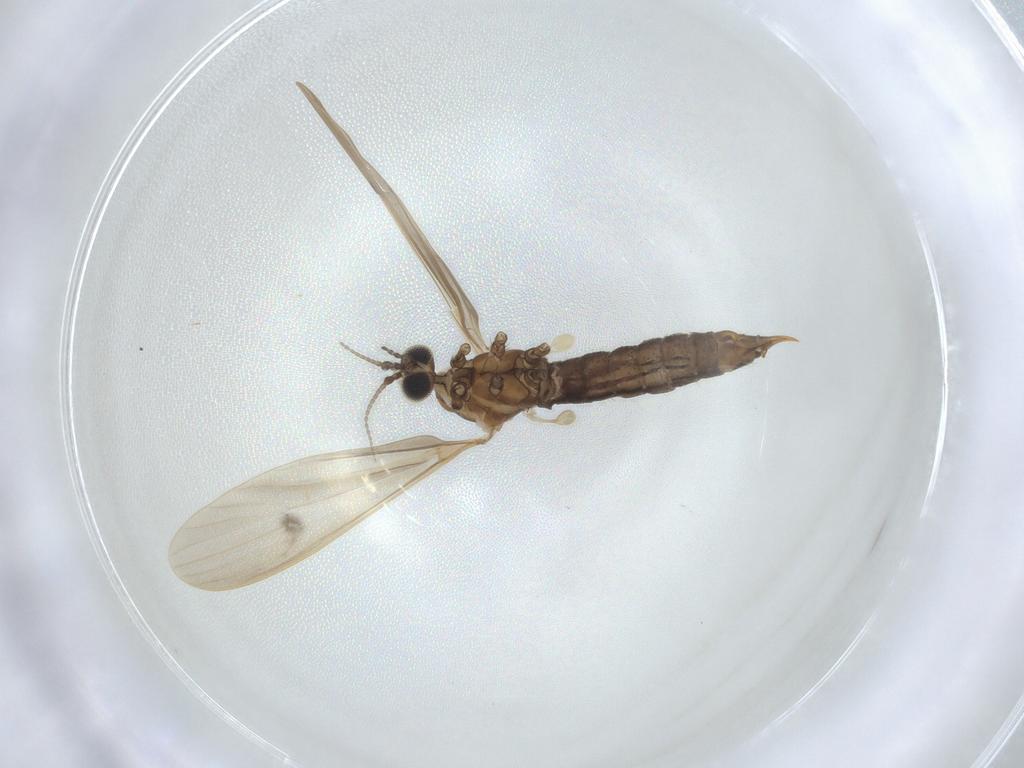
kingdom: Animalia
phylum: Arthropoda
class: Insecta
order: Diptera
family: Limoniidae
